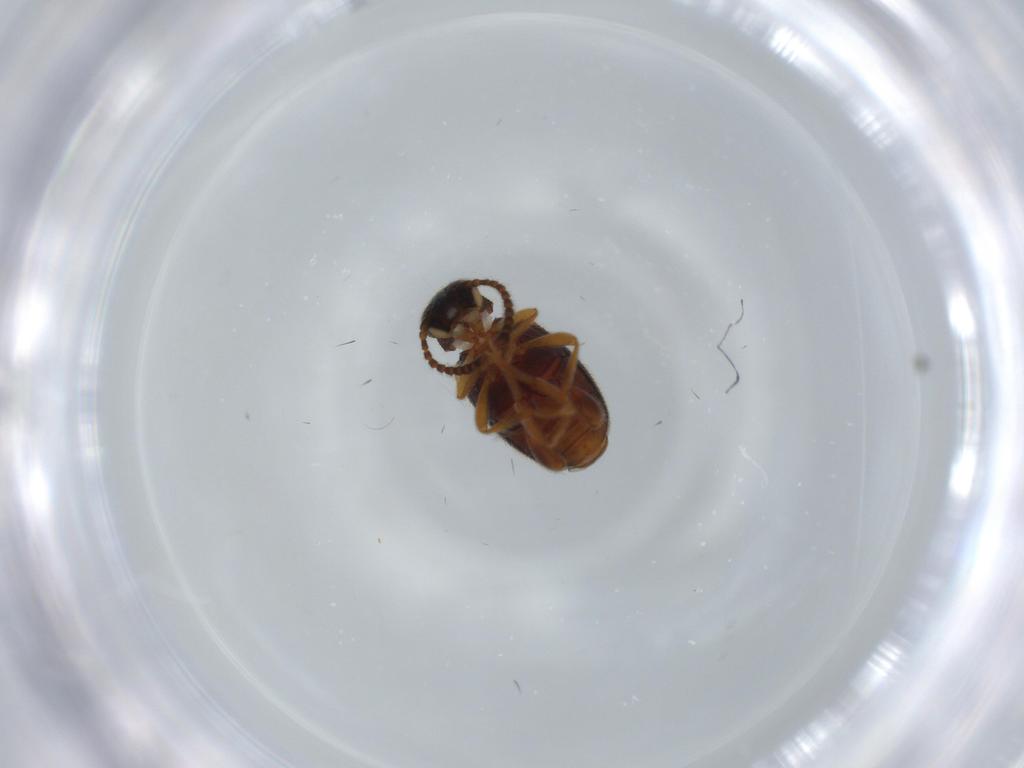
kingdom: Animalia
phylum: Arthropoda
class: Insecta
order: Coleoptera
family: Aderidae
